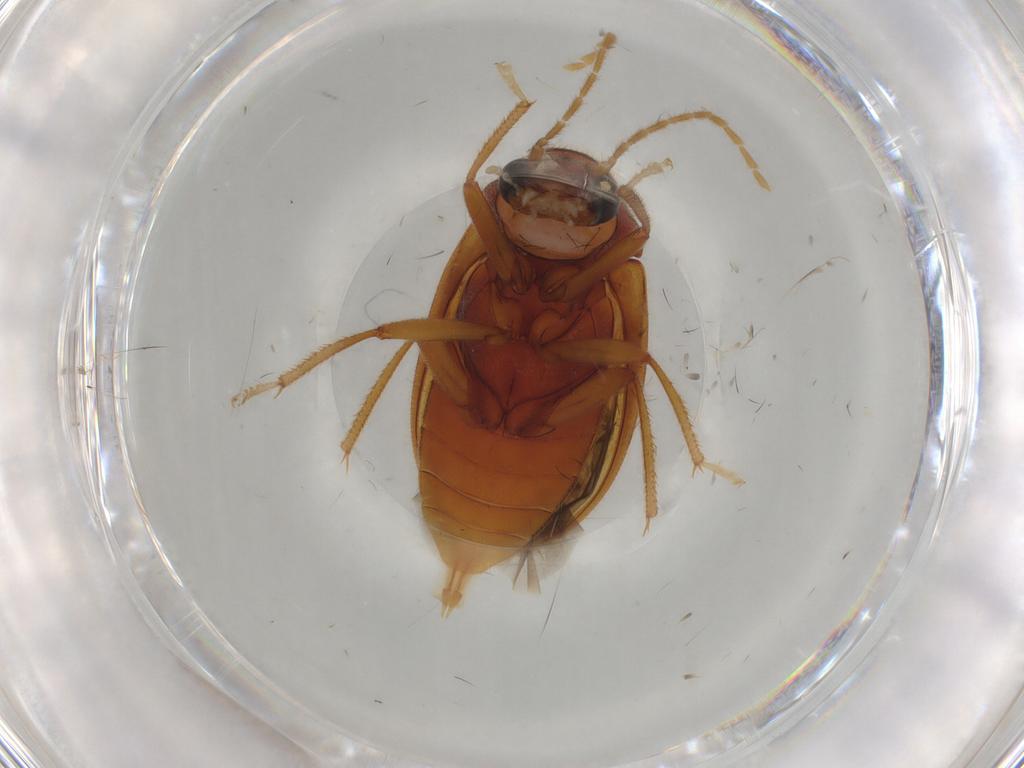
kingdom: Animalia
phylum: Arthropoda
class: Insecta
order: Coleoptera
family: Ptilodactylidae
